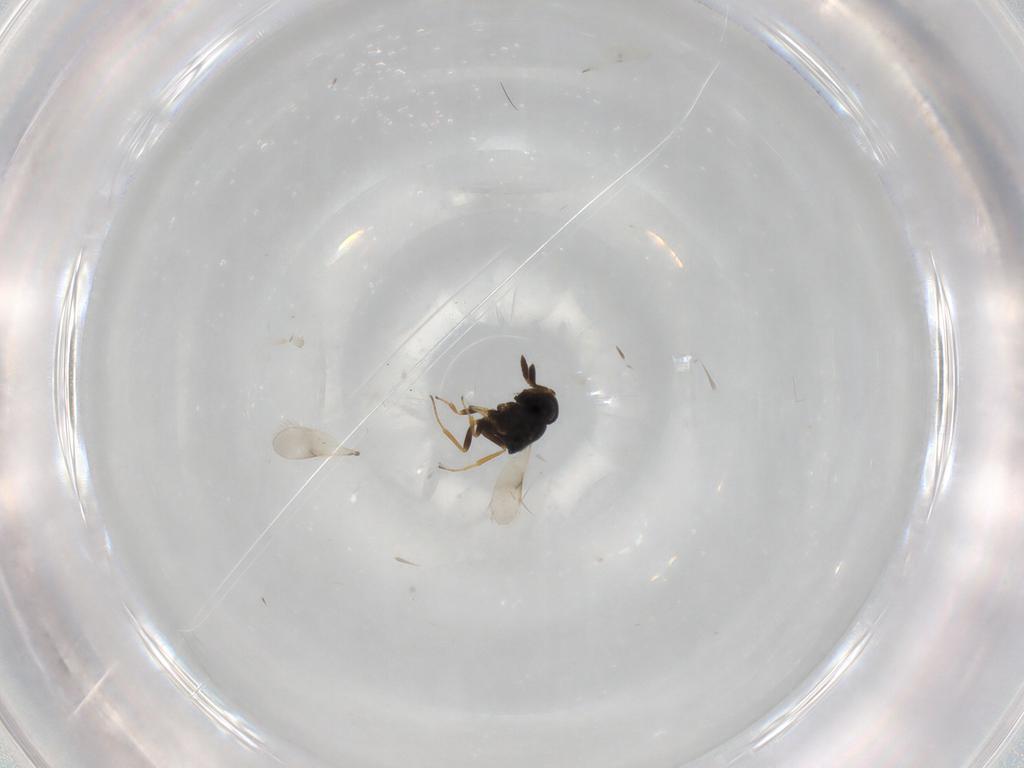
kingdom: Animalia
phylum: Arthropoda
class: Insecta
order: Hymenoptera
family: Scelionidae
